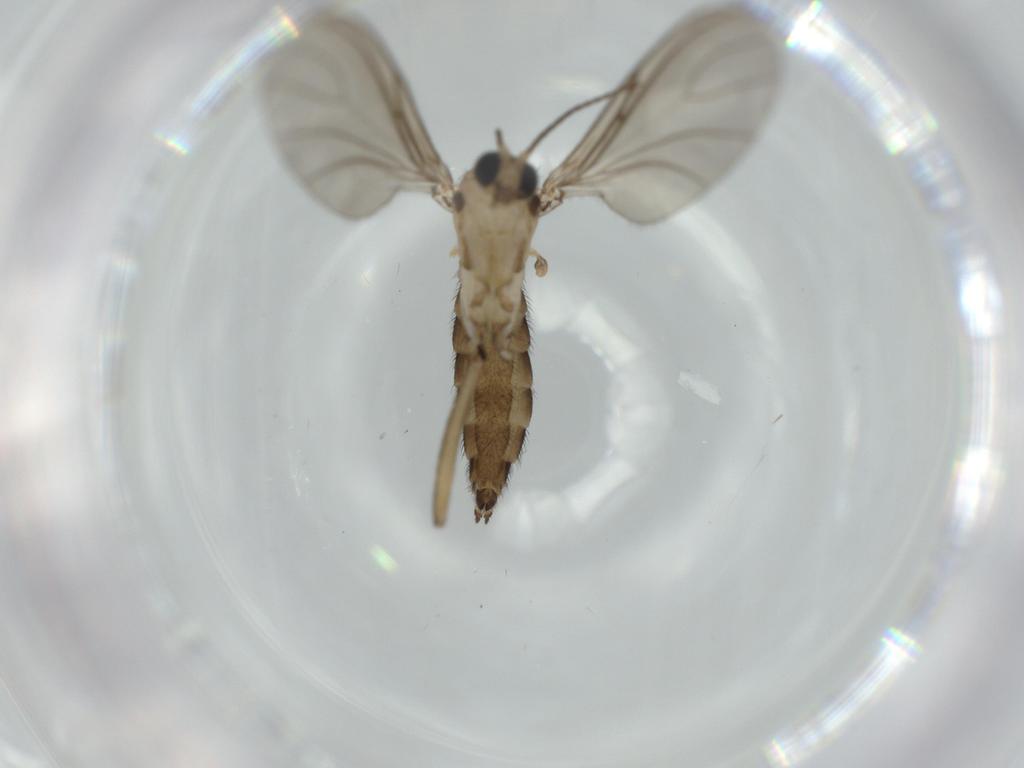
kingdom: Animalia
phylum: Arthropoda
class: Insecta
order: Diptera
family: Sciaridae
